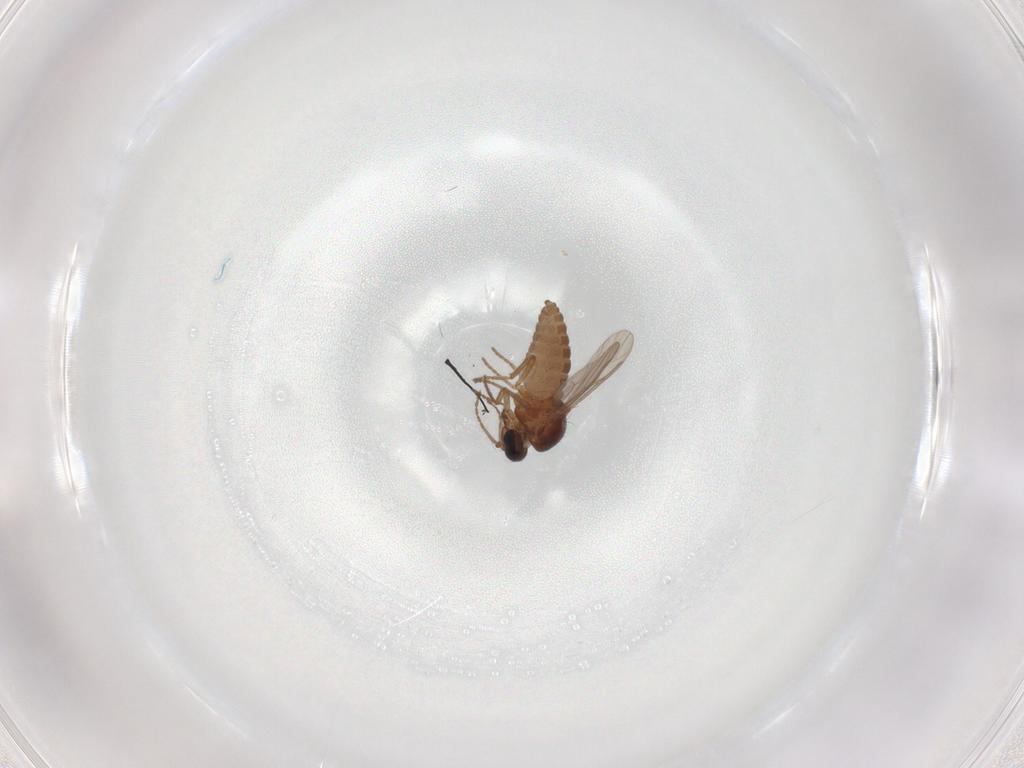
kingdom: Animalia
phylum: Arthropoda
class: Insecta
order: Diptera
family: Ceratopogonidae
